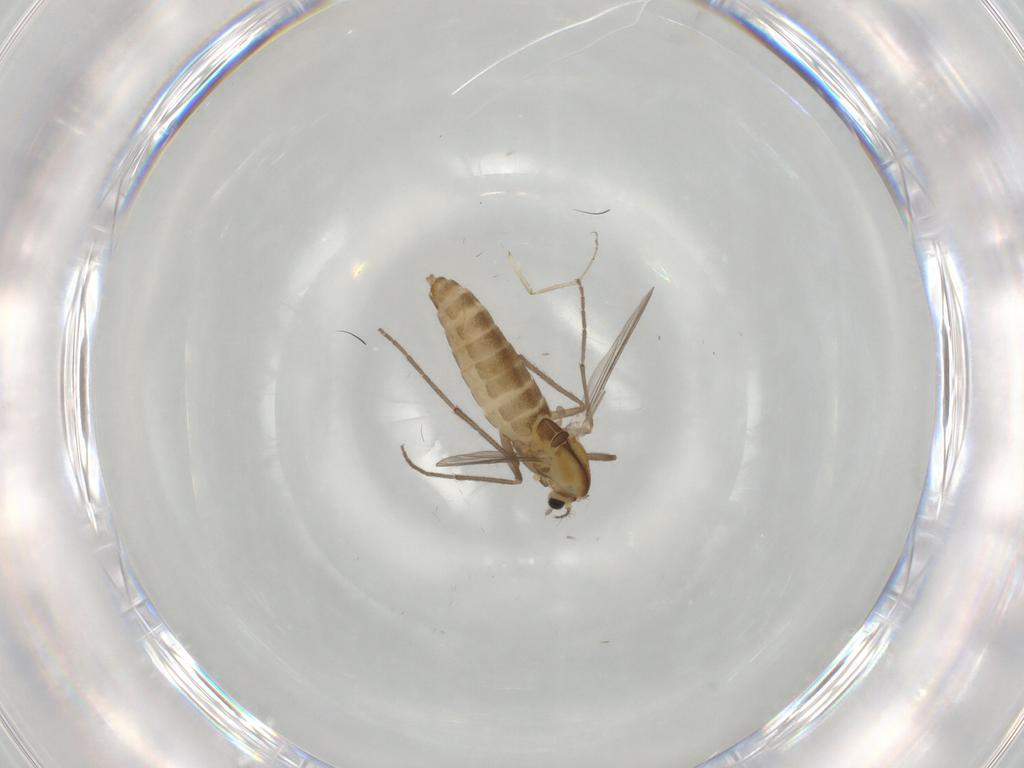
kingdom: Animalia
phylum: Arthropoda
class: Insecta
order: Diptera
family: Chironomidae
